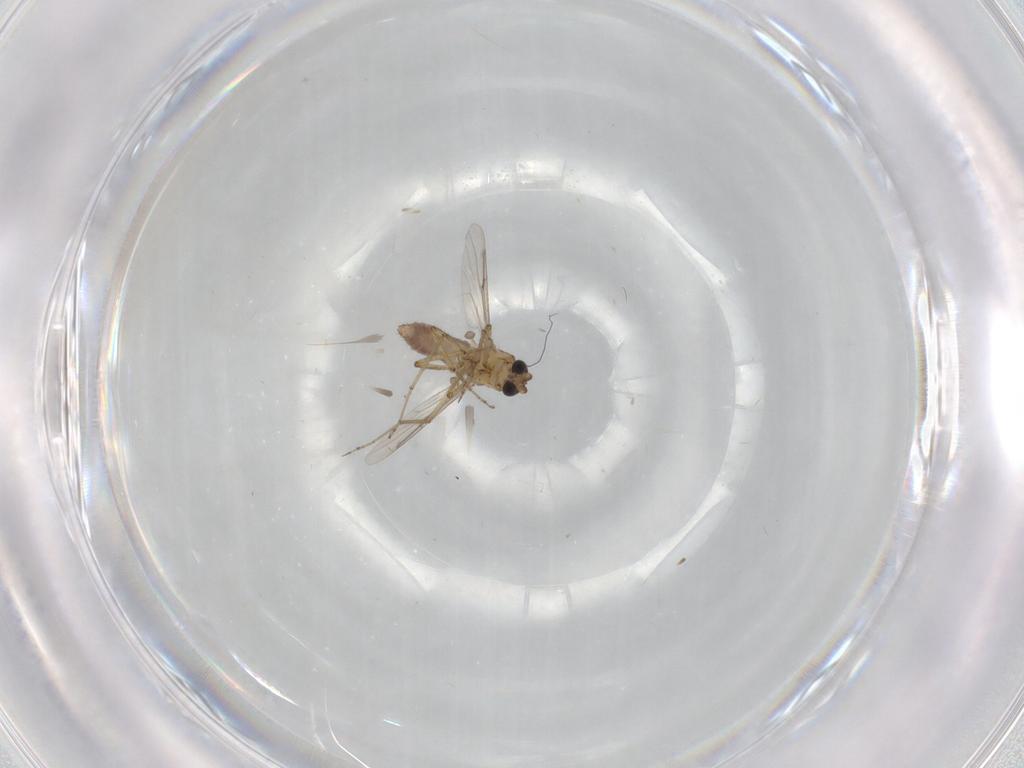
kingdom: Animalia
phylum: Arthropoda
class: Insecta
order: Diptera
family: Ceratopogonidae
